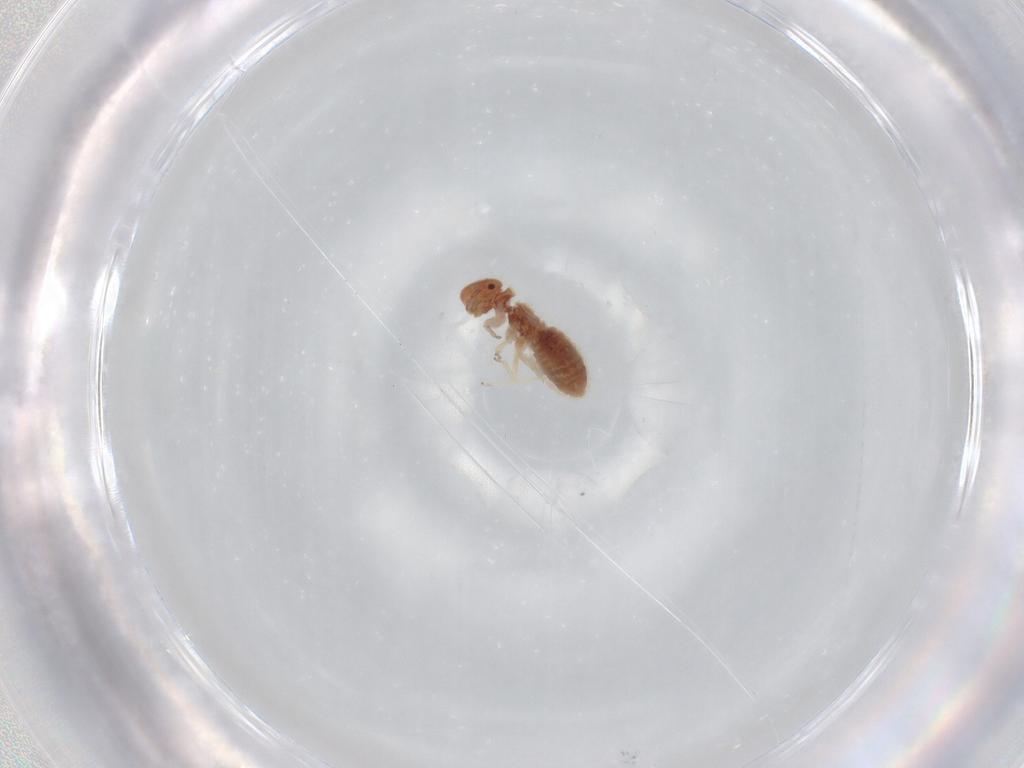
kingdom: Animalia
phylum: Arthropoda
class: Insecta
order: Psocodea
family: Archipsocidae
